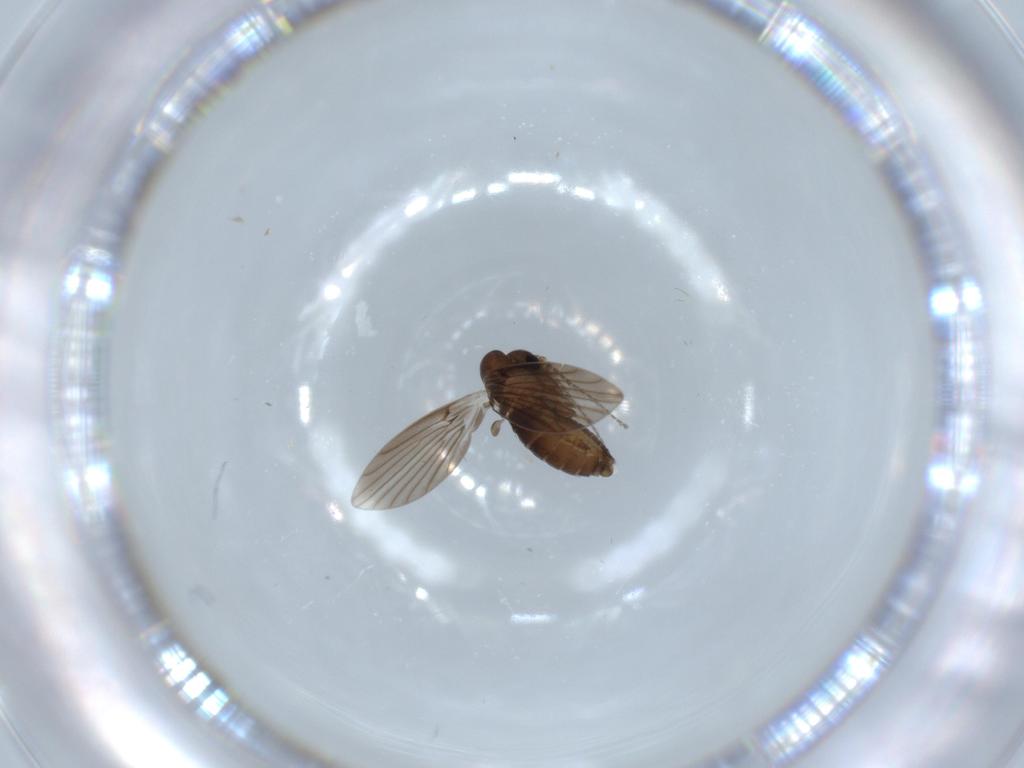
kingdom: Animalia
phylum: Arthropoda
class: Insecta
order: Diptera
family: Psychodidae
